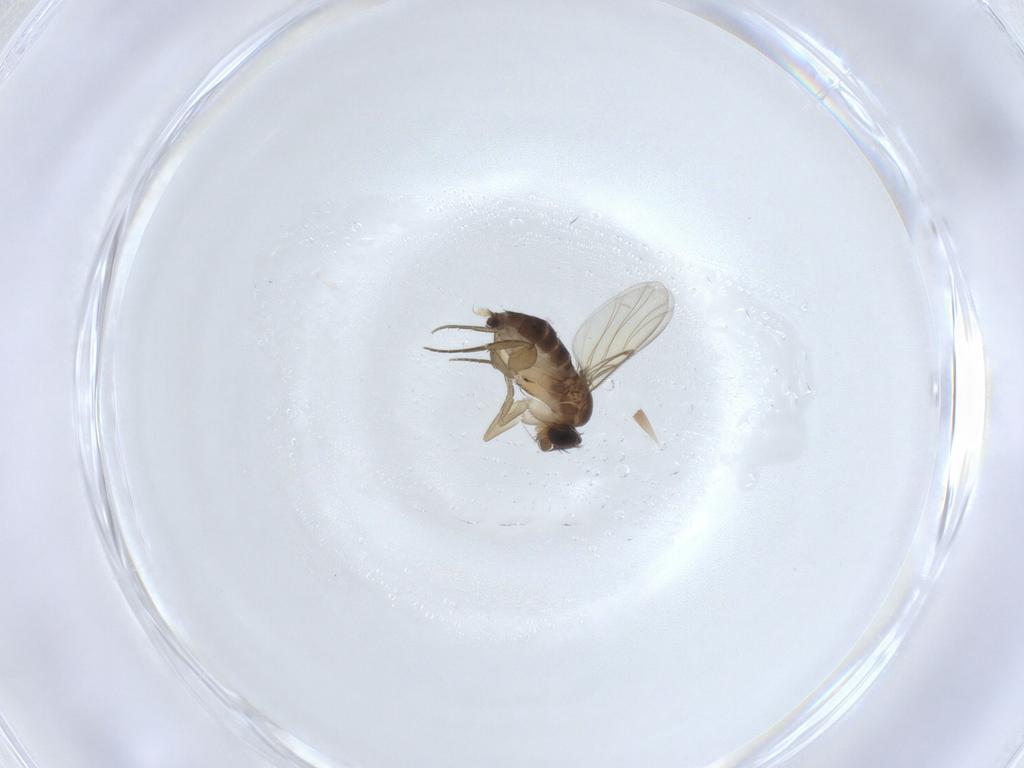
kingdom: Animalia
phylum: Arthropoda
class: Insecta
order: Diptera
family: Phoridae
